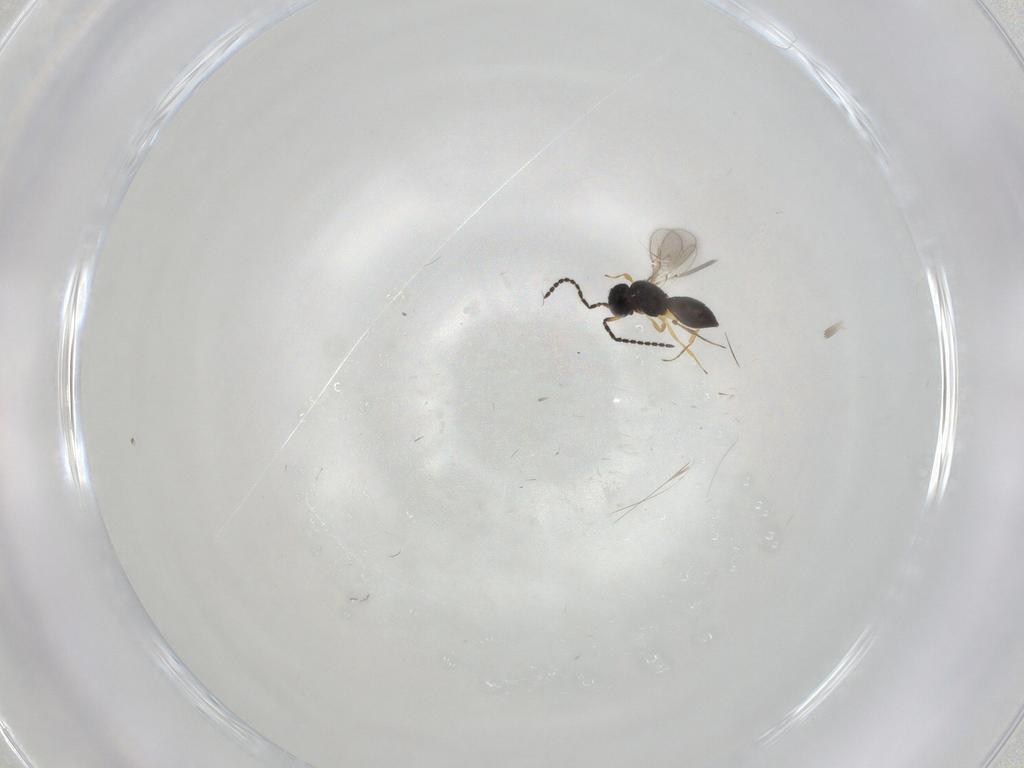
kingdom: Animalia
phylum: Arthropoda
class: Insecta
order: Hymenoptera
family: Scelionidae
